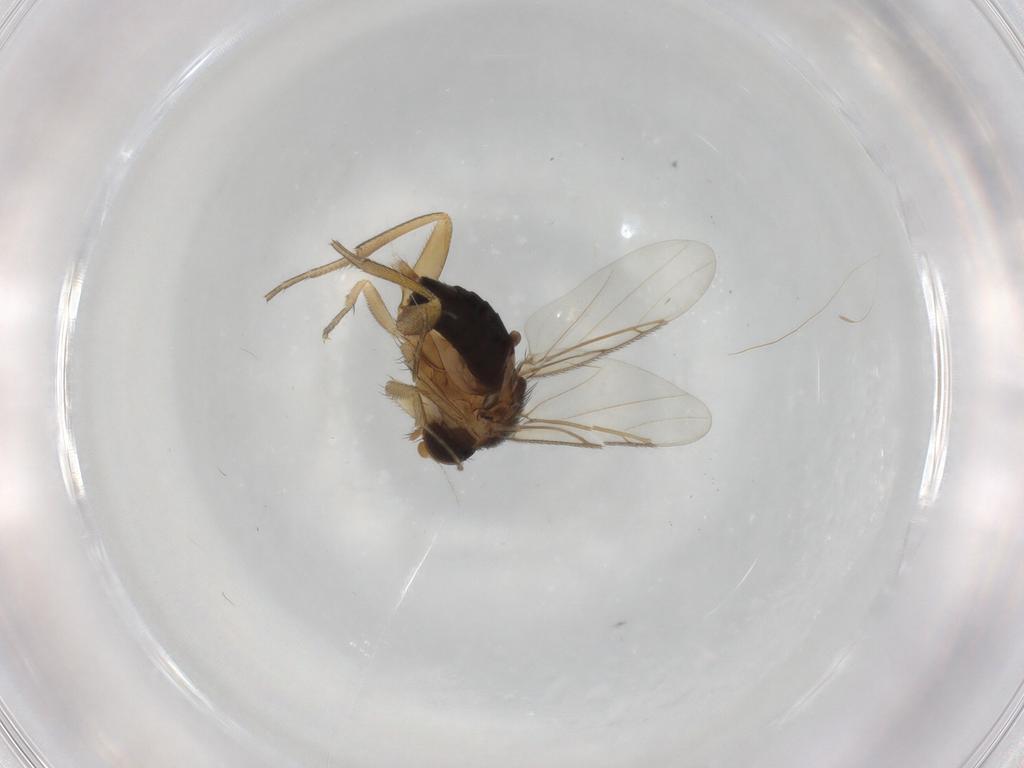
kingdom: Animalia
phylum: Arthropoda
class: Insecta
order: Diptera
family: Phoridae
